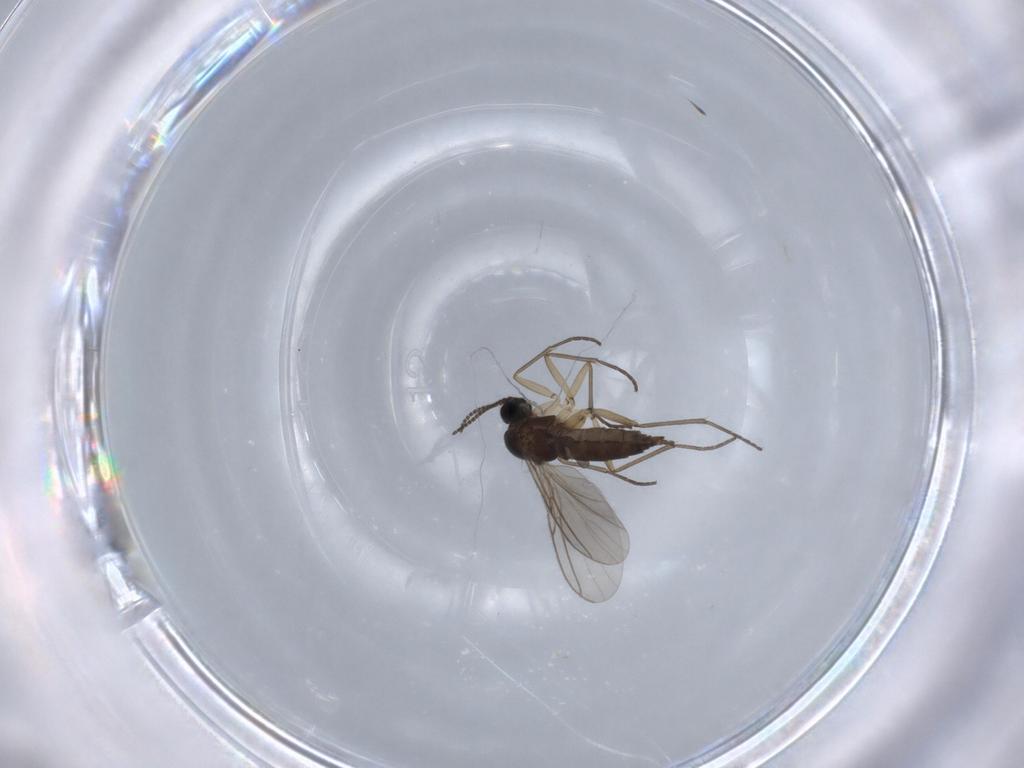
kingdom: Animalia
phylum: Arthropoda
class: Insecta
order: Diptera
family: Sciaridae
